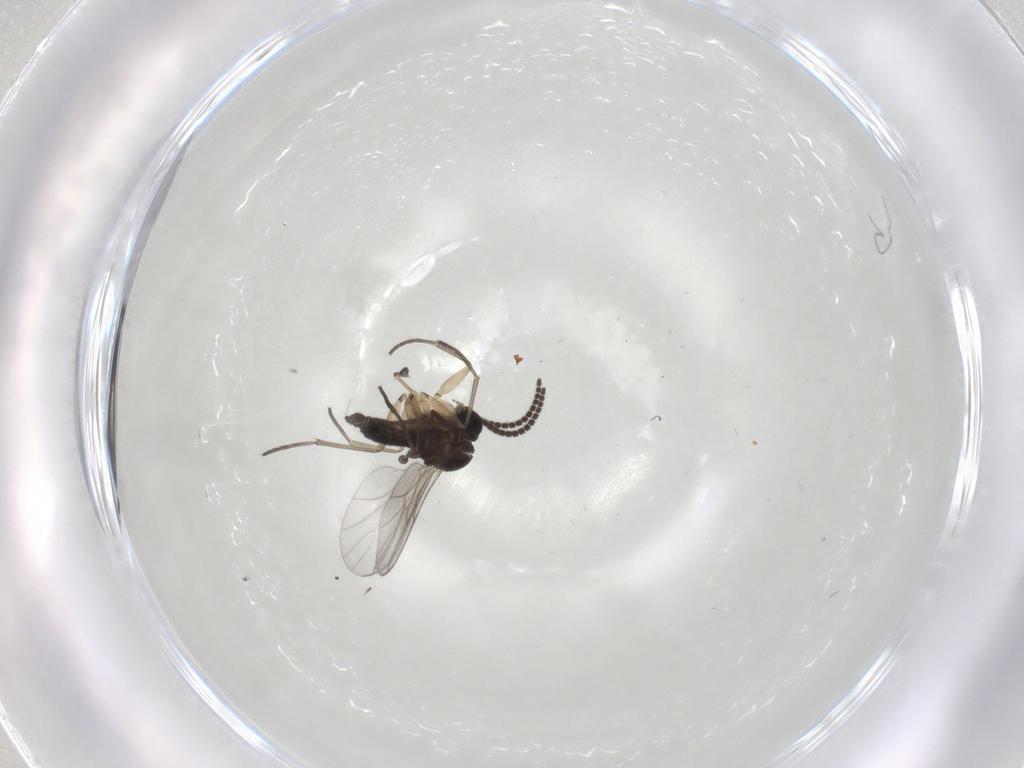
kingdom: Animalia
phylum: Arthropoda
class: Insecta
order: Diptera
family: Sciaridae
